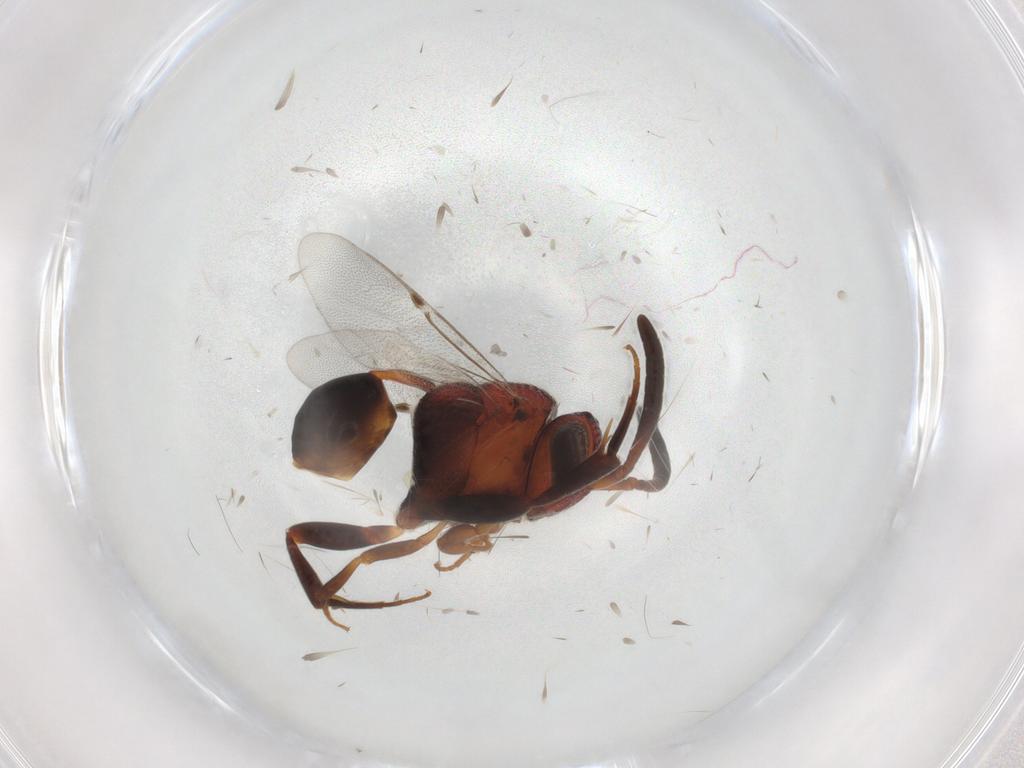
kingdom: Animalia
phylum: Arthropoda
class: Insecta
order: Hymenoptera
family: Evaniidae
